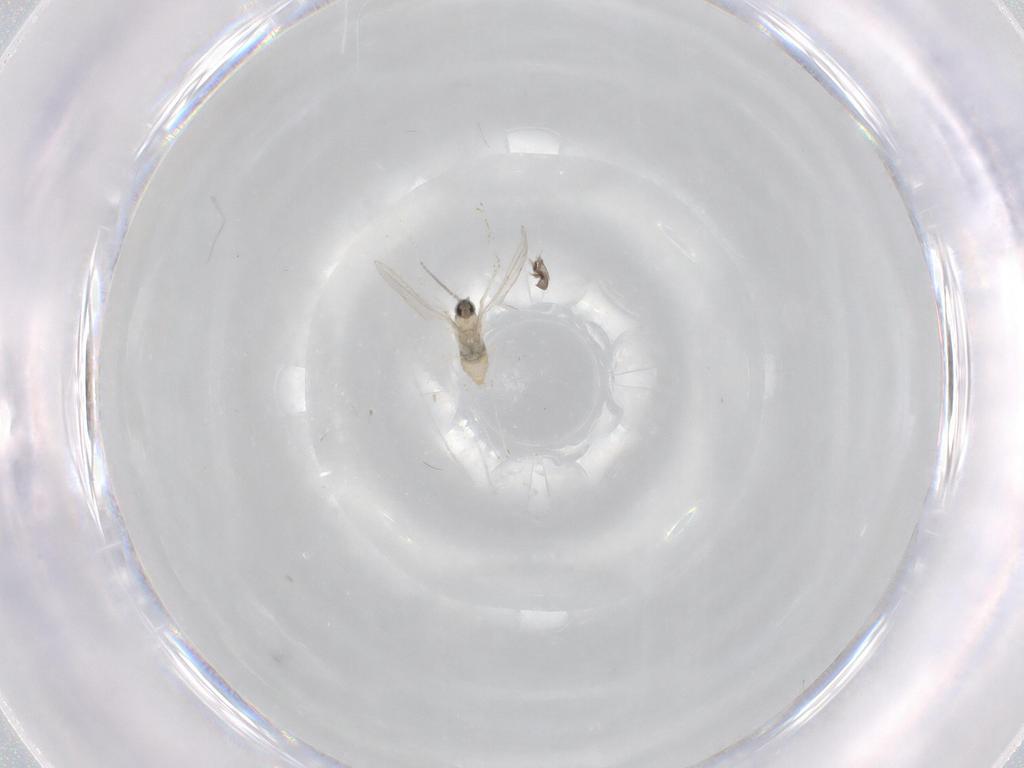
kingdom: Animalia
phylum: Arthropoda
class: Insecta
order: Diptera
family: Cecidomyiidae
